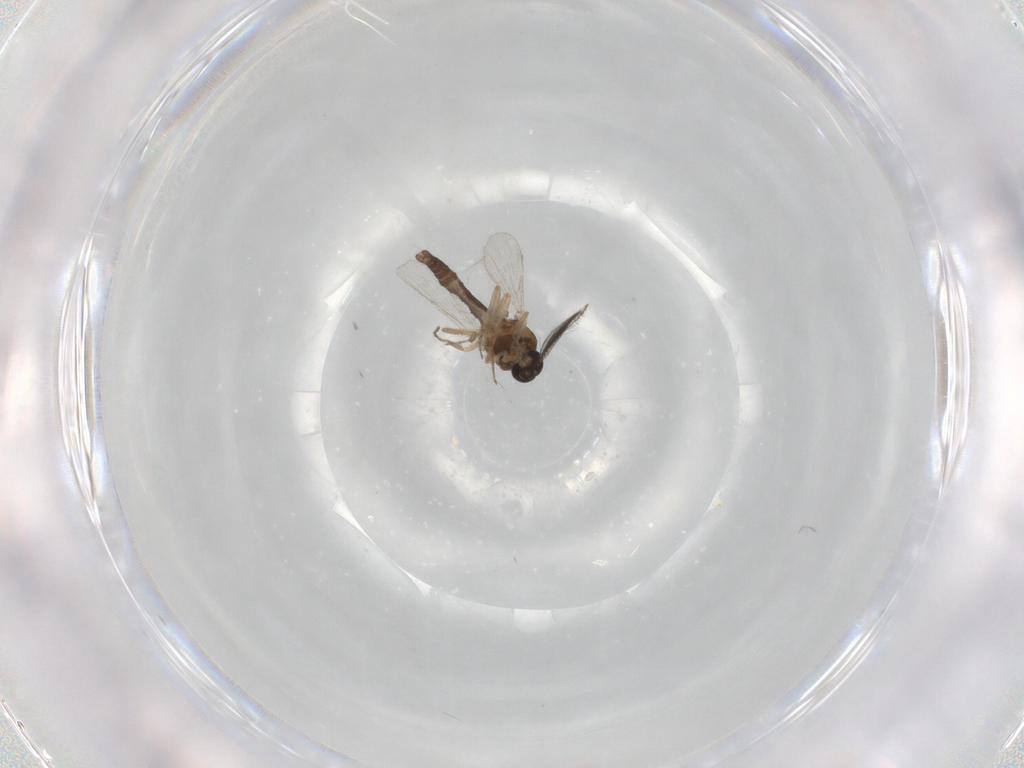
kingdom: Animalia
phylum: Arthropoda
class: Insecta
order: Diptera
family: Ceratopogonidae
